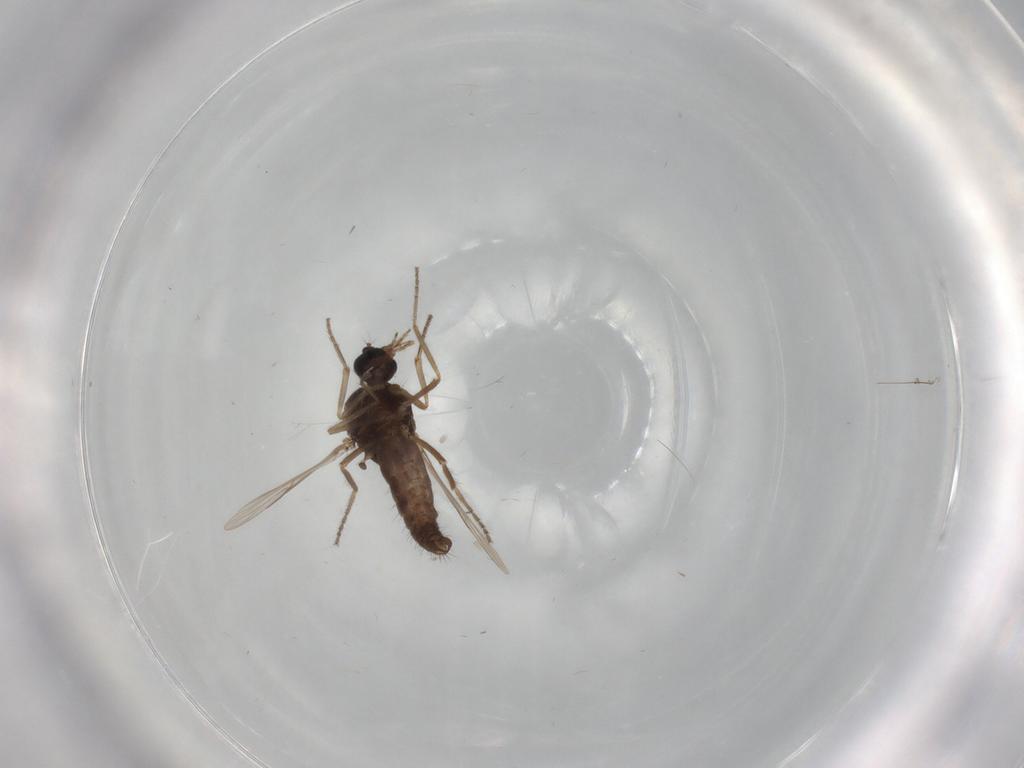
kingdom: Animalia
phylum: Arthropoda
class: Insecta
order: Diptera
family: Ceratopogonidae
